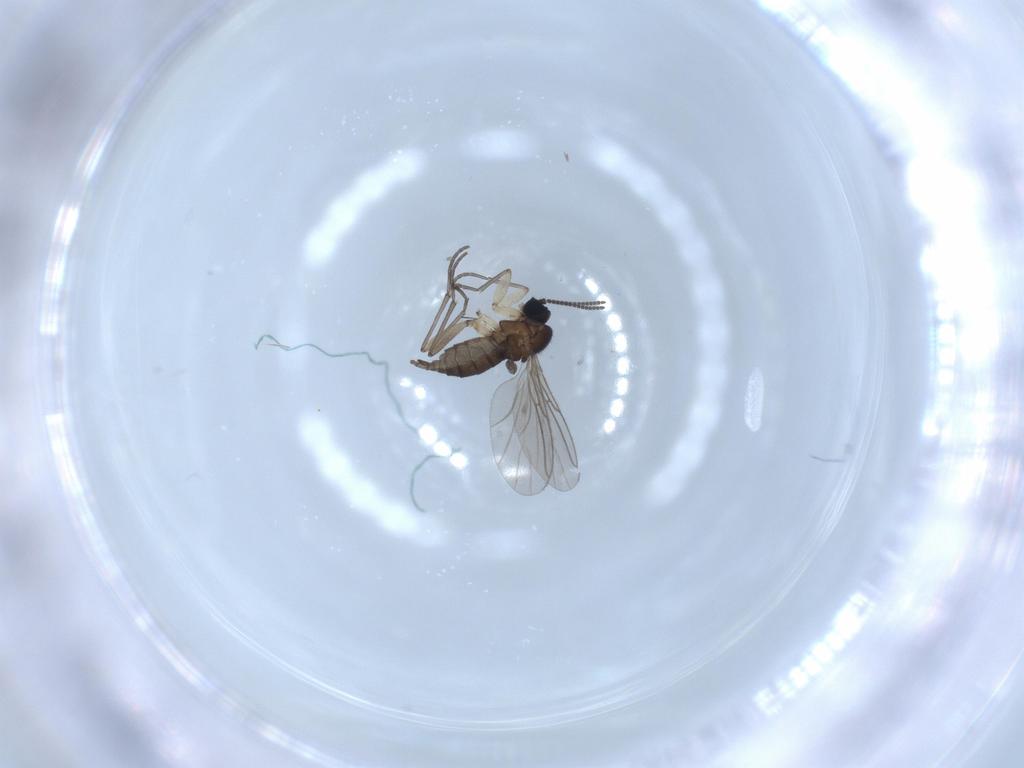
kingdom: Animalia
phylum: Arthropoda
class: Insecta
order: Diptera
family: Sciaridae
